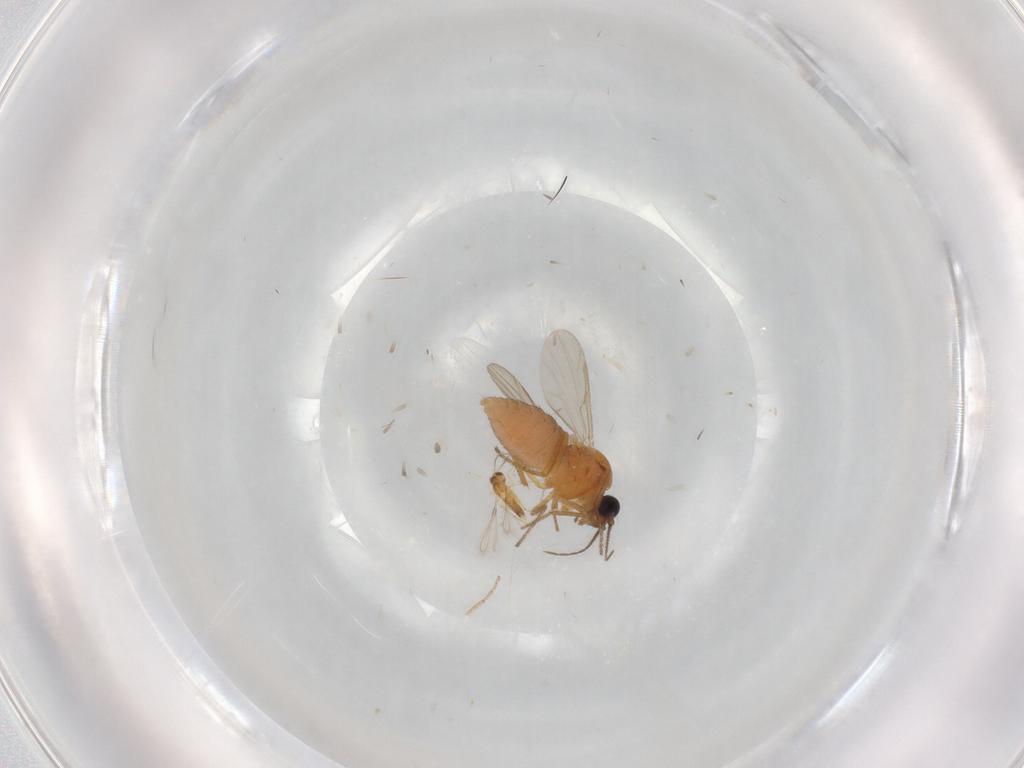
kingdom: Animalia
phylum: Arthropoda
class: Insecta
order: Diptera
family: Ceratopogonidae
